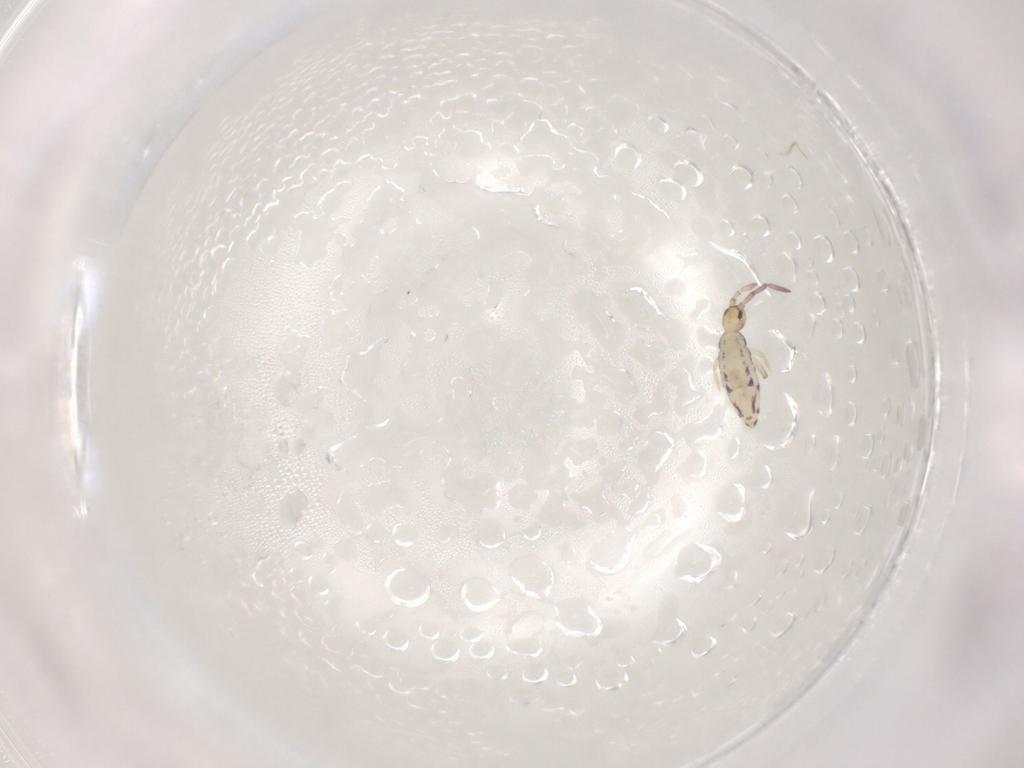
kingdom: Animalia
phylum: Arthropoda
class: Collembola
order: Entomobryomorpha
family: Entomobryidae
